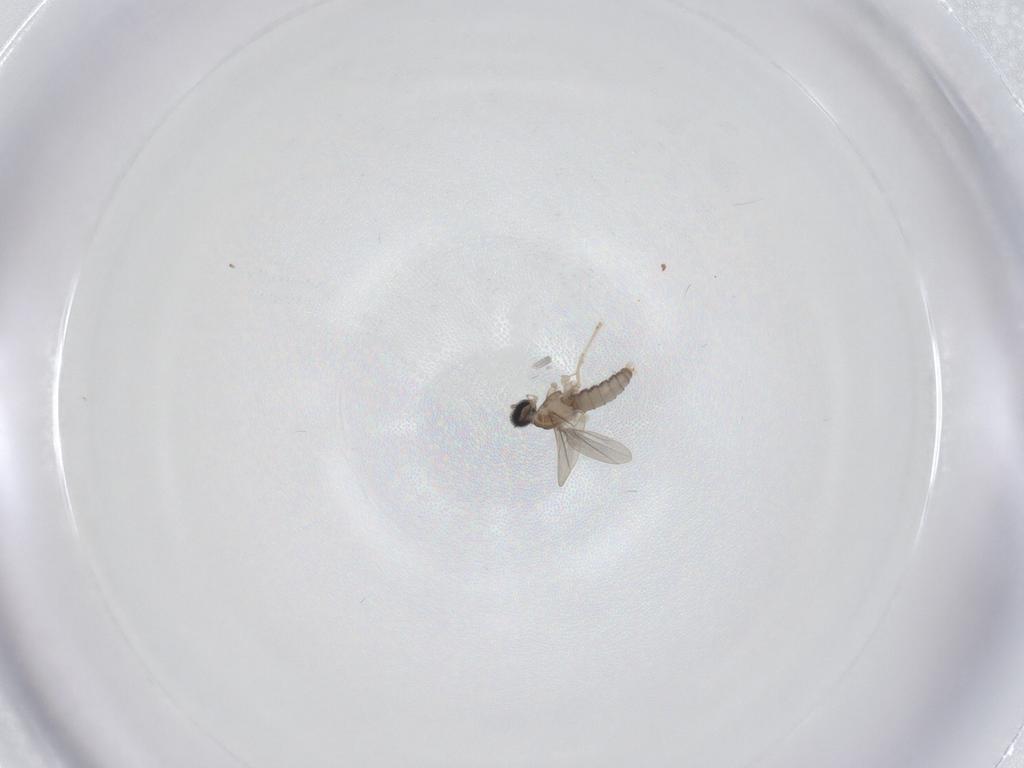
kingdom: Animalia
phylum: Arthropoda
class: Insecta
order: Diptera
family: Cecidomyiidae
